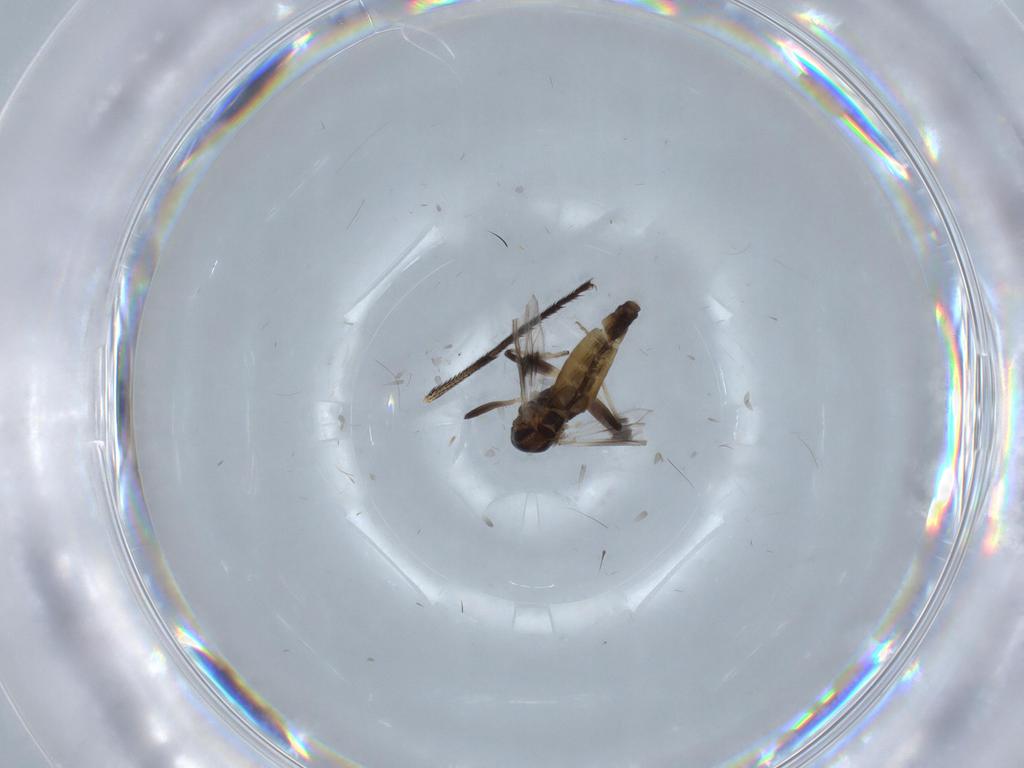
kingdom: Animalia
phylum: Arthropoda
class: Insecta
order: Diptera
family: Chironomidae
